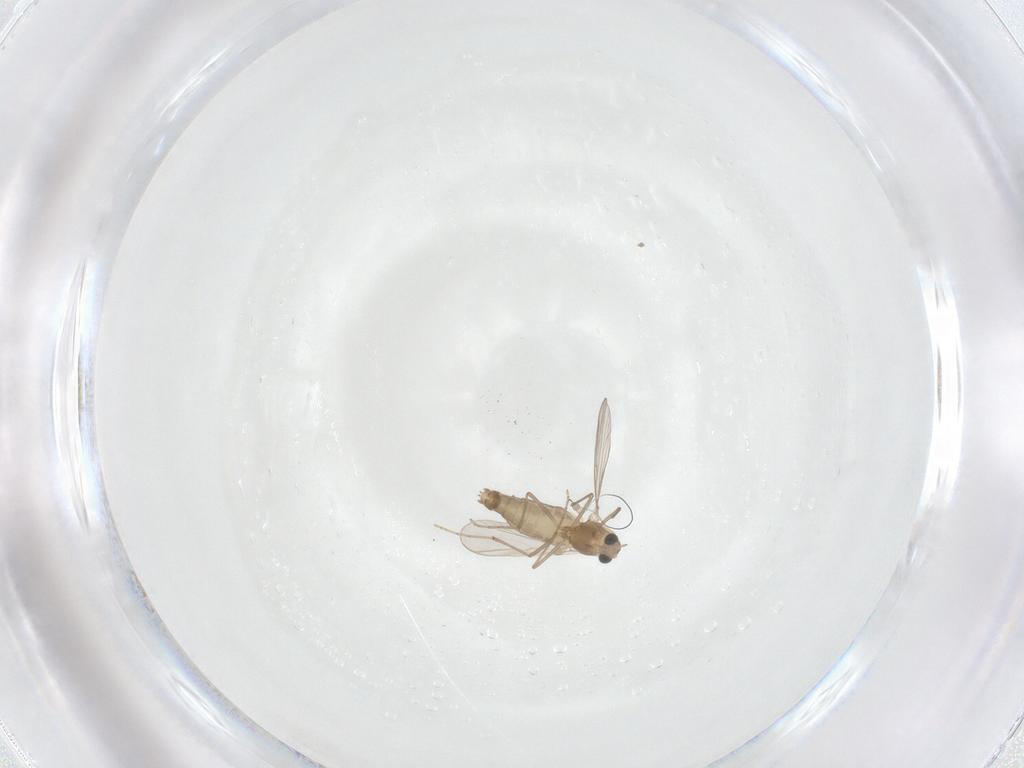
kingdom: Animalia
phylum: Arthropoda
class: Insecta
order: Diptera
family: Chironomidae
